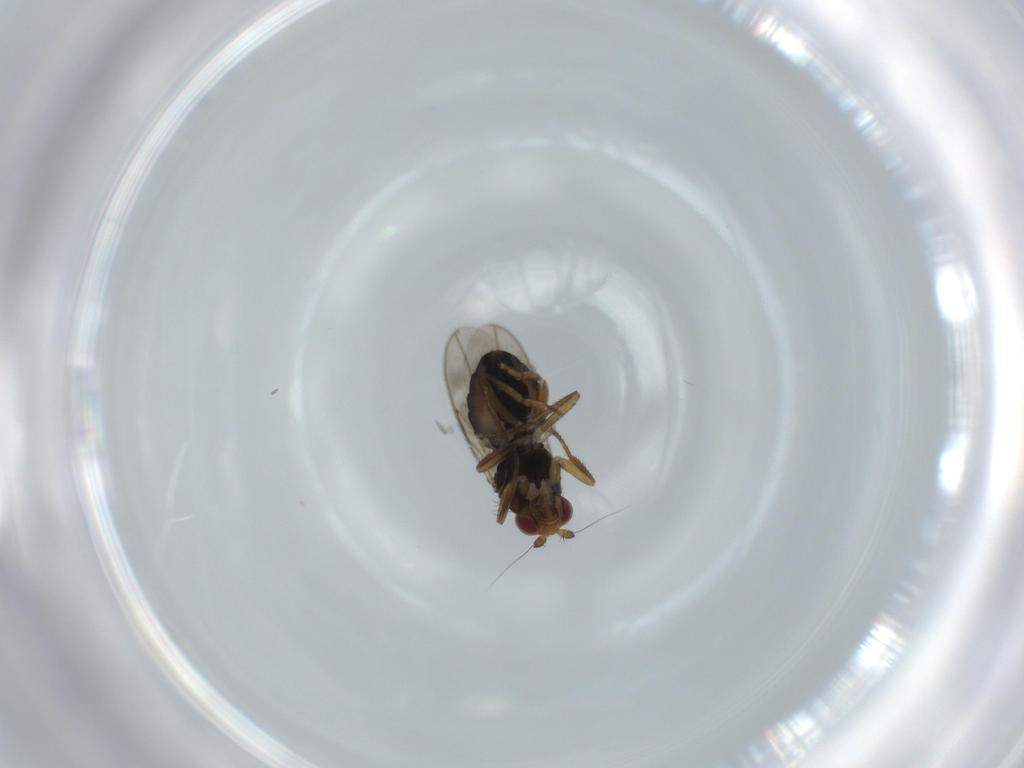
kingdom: Animalia
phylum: Arthropoda
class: Insecta
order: Diptera
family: Sphaeroceridae
